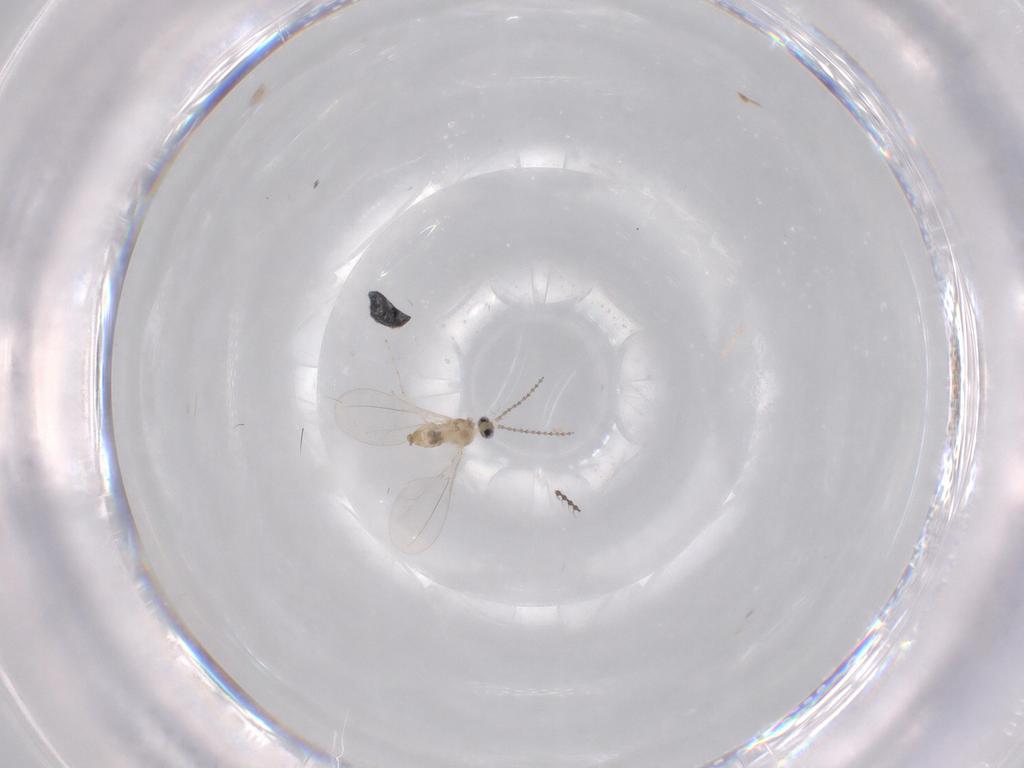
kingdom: Animalia
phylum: Arthropoda
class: Insecta
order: Diptera
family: Cecidomyiidae
